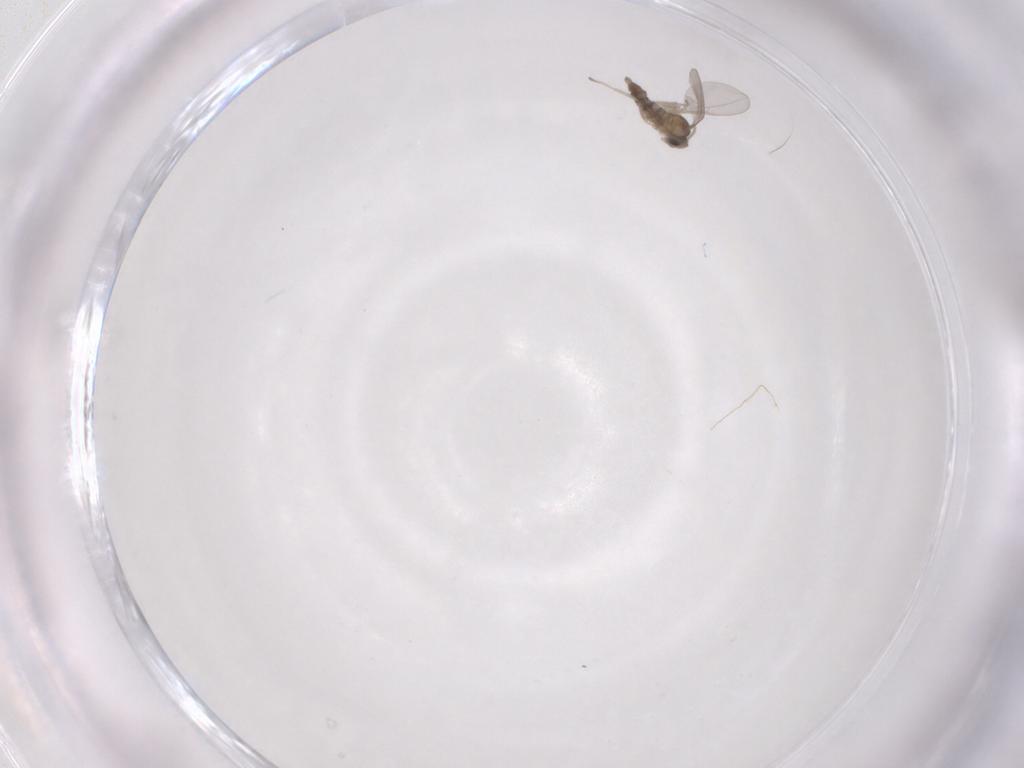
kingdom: Animalia
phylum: Arthropoda
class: Insecta
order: Diptera
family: Cecidomyiidae
